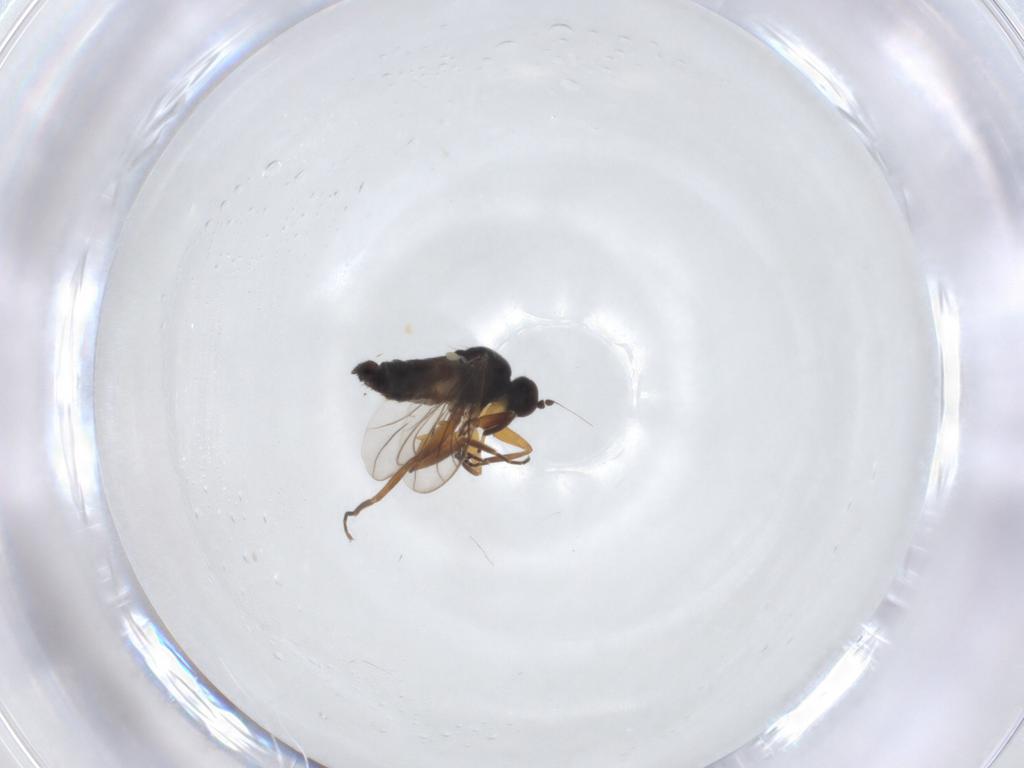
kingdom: Animalia
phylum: Arthropoda
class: Insecta
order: Diptera
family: Hybotidae
